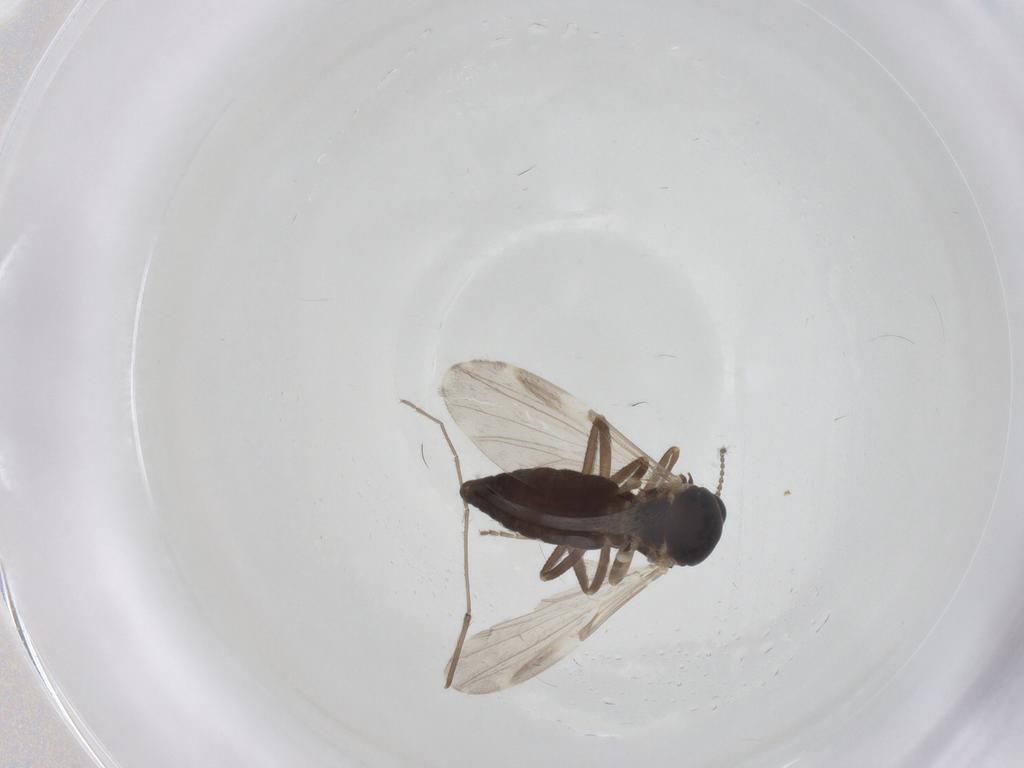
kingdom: Animalia
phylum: Arthropoda
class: Insecta
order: Diptera
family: Ceratopogonidae
